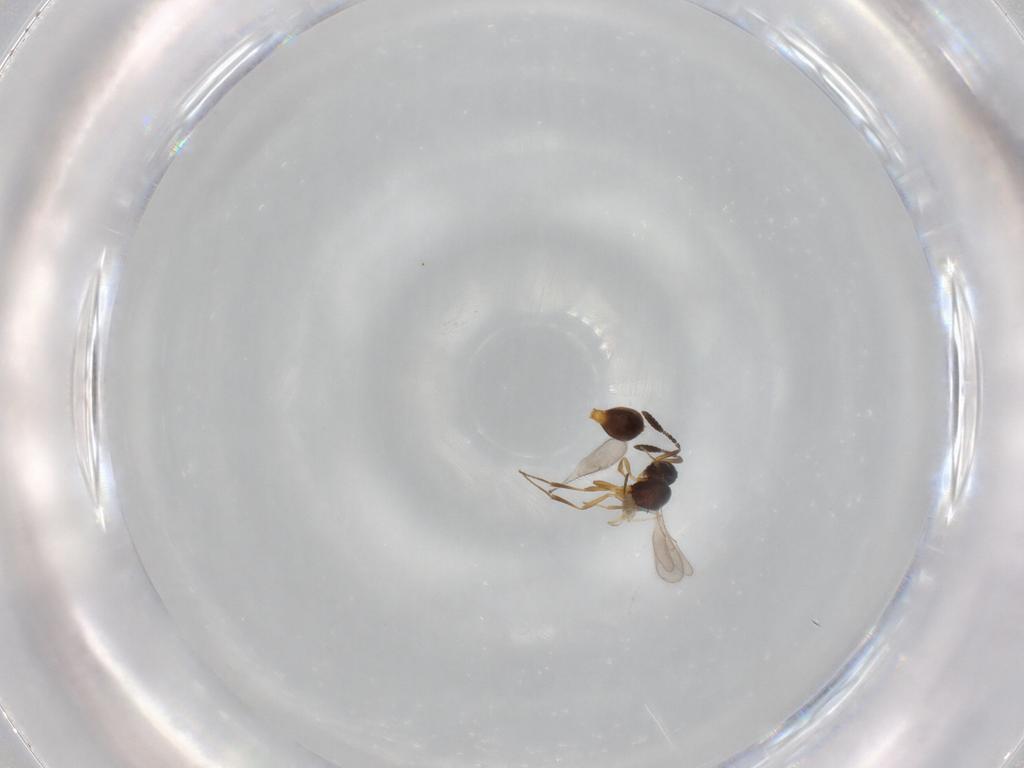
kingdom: Animalia
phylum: Arthropoda
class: Insecta
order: Hymenoptera
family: Scelionidae
